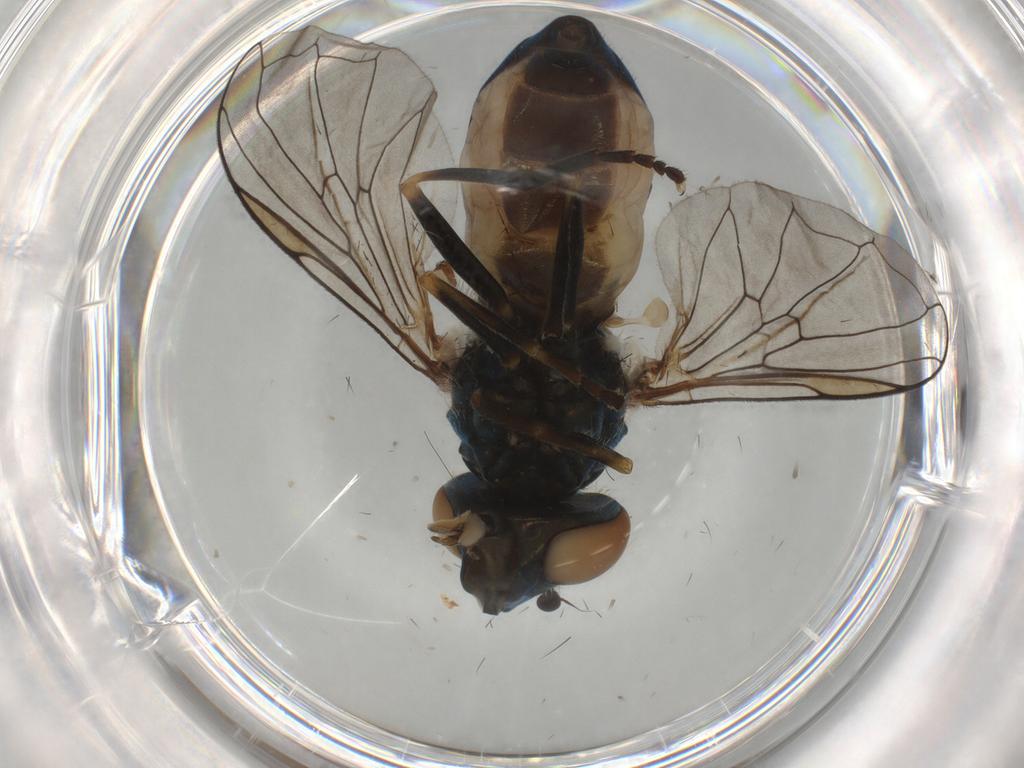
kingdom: Animalia
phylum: Arthropoda
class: Insecta
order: Diptera
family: Syrphidae
